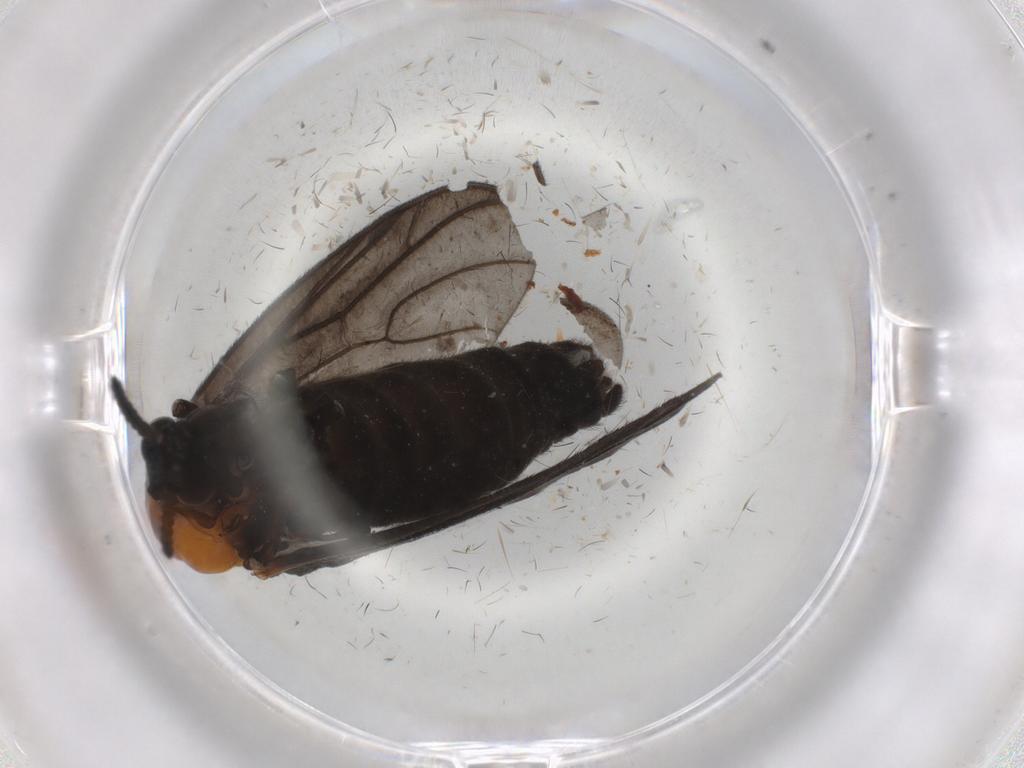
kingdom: Animalia
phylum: Arthropoda
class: Insecta
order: Diptera
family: Bibionidae
